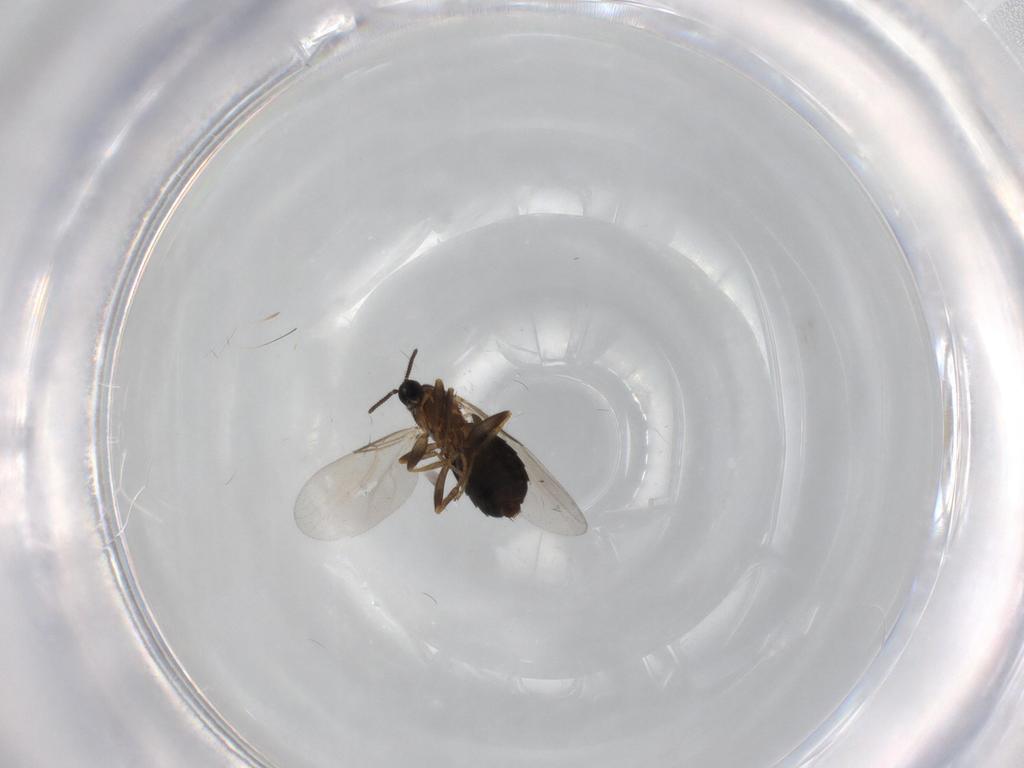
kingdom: Animalia
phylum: Arthropoda
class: Insecta
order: Diptera
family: Scatopsidae
